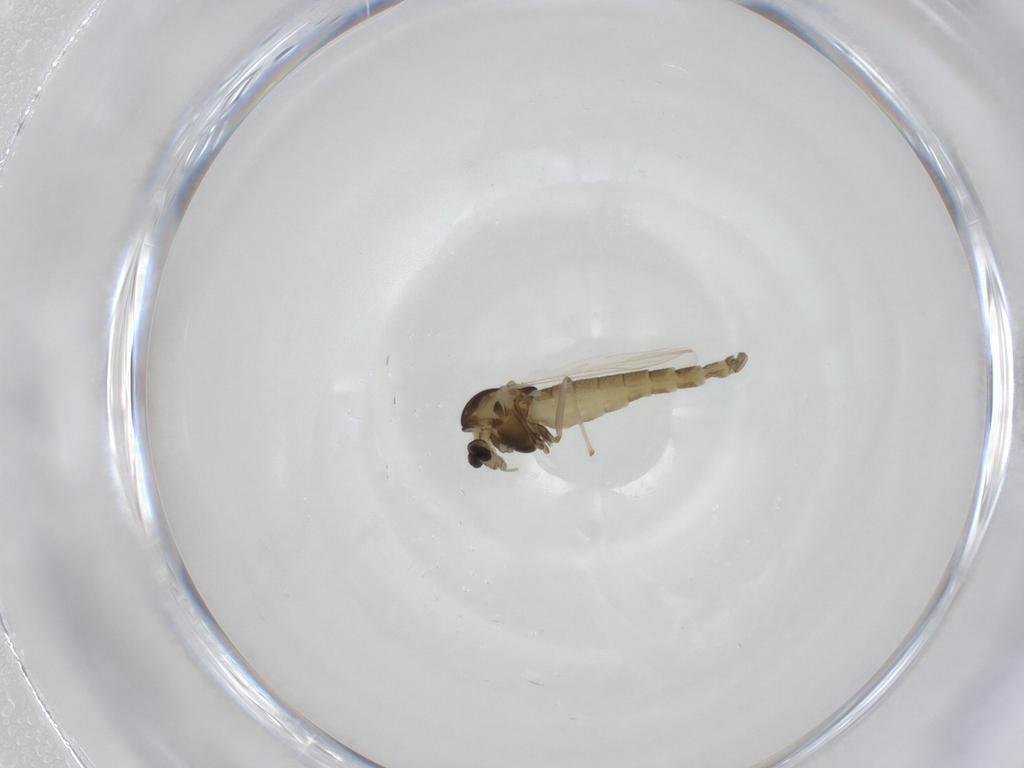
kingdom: Animalia
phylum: Arthropoda
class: Insecta
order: Diptera
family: Chironomidae
